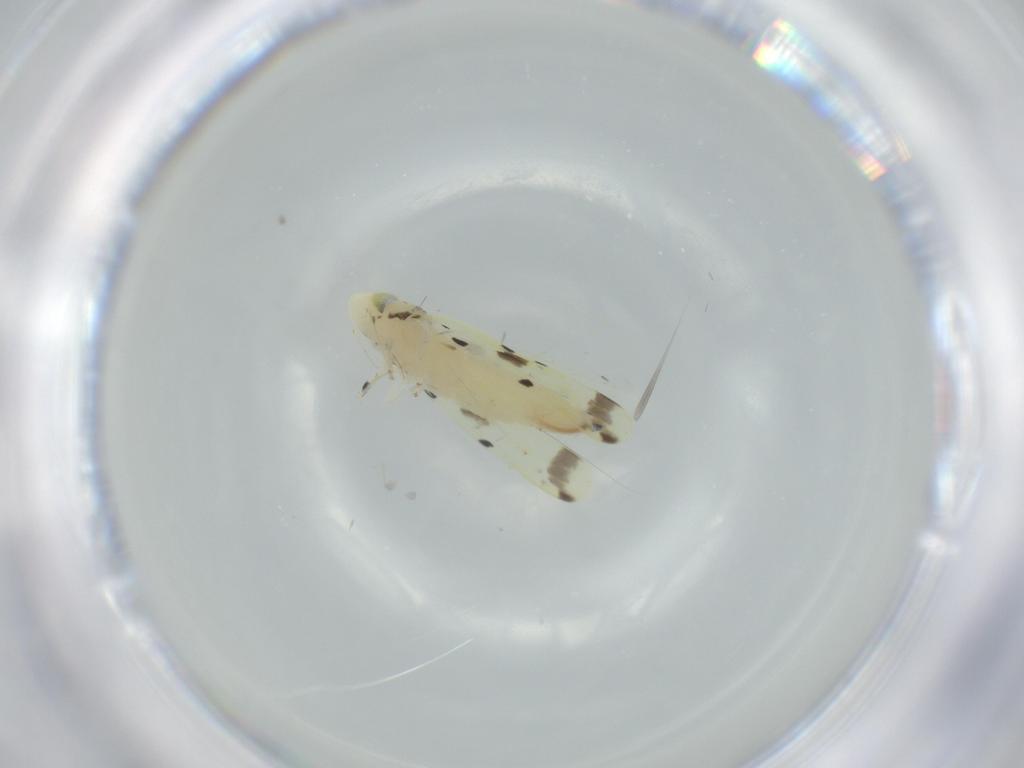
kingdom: Animalia
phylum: Arthropoda
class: Insecta
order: Hemiptera
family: Cicadellidae
